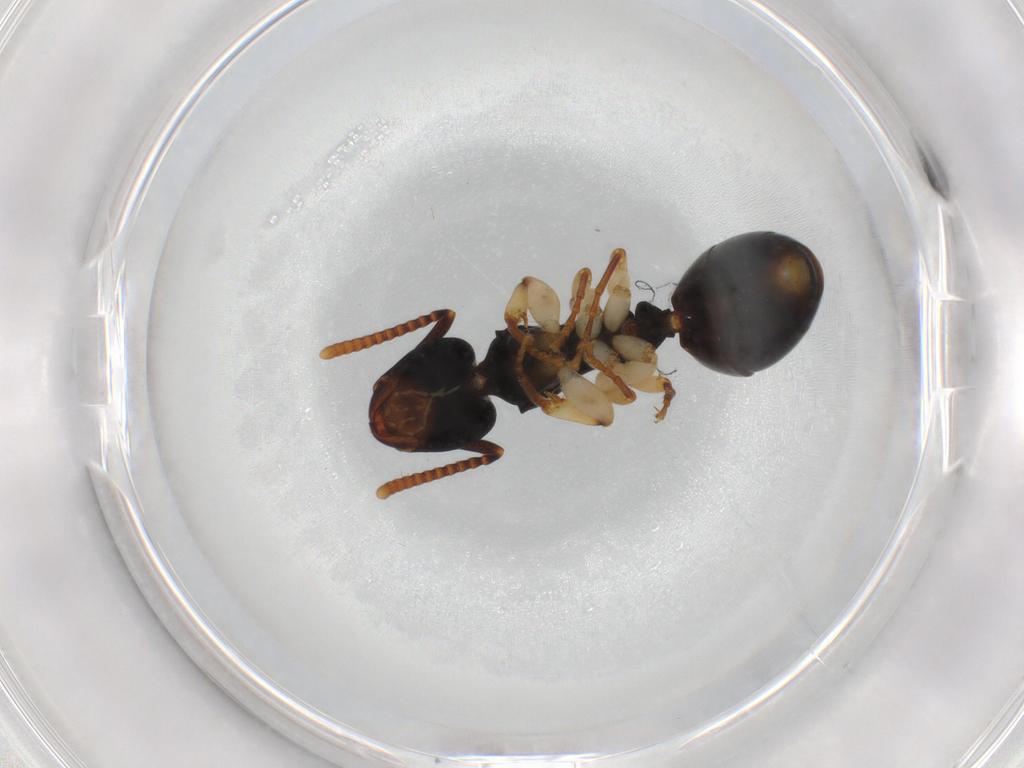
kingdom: Animalia
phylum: Arthropoda
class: Insecta
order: Hymenoptera
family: Formicidae
